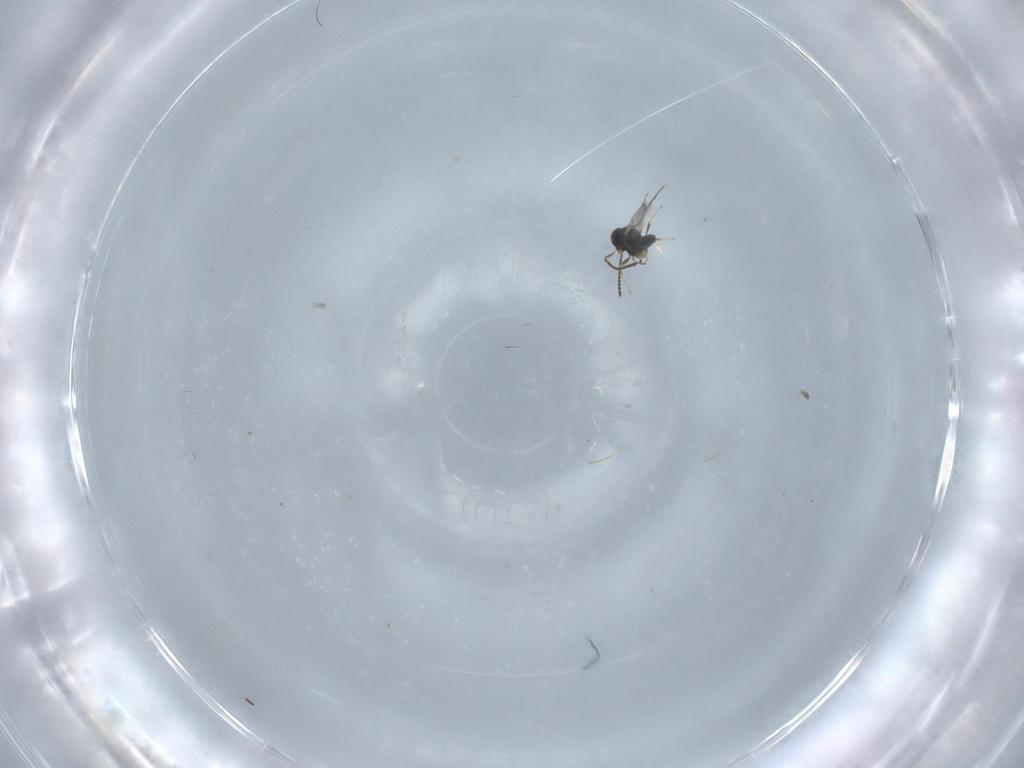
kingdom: Animalia
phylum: Arthropoda
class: Insecta
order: Hymenoptera
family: Scelionidae
